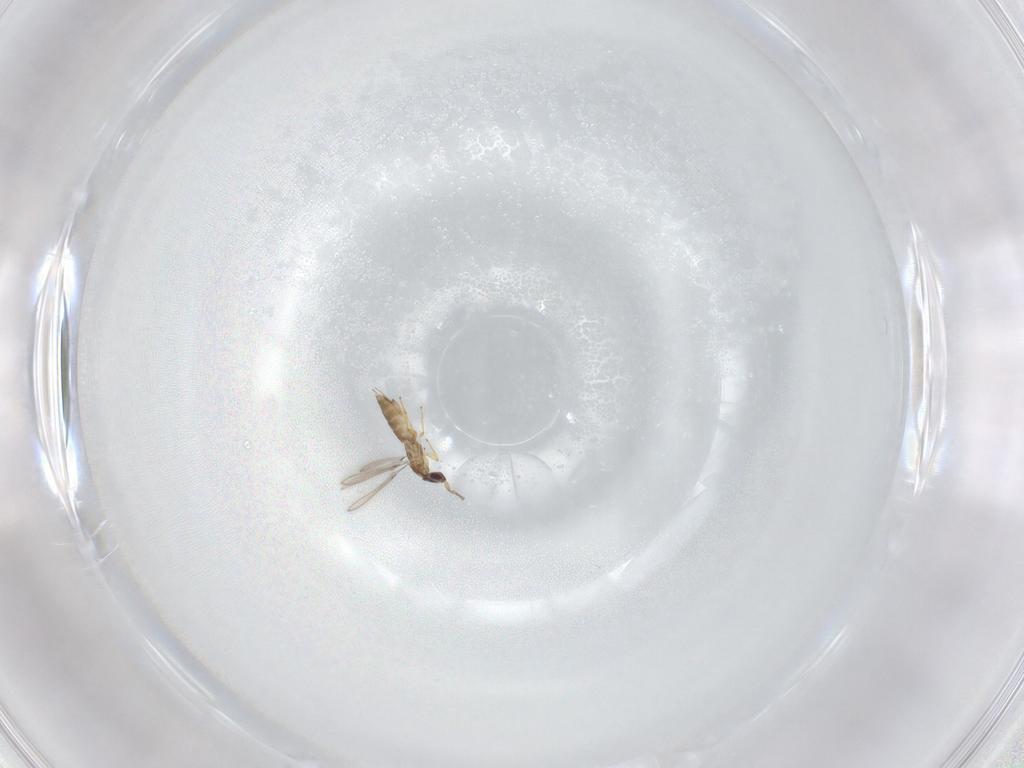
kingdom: Animalia
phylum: Arthropoda
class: Insecta
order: Hymenoptera
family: Mymaridae
